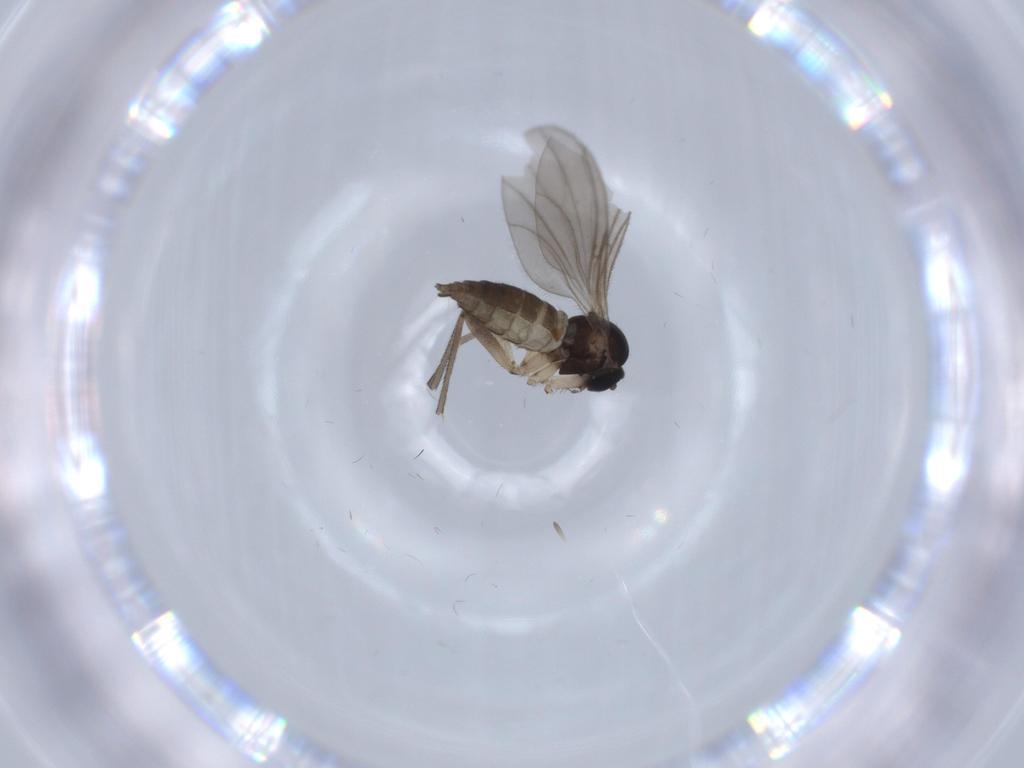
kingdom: Animalia
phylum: Arthropoda
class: Insecta
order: Diptera
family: Sciaridae
